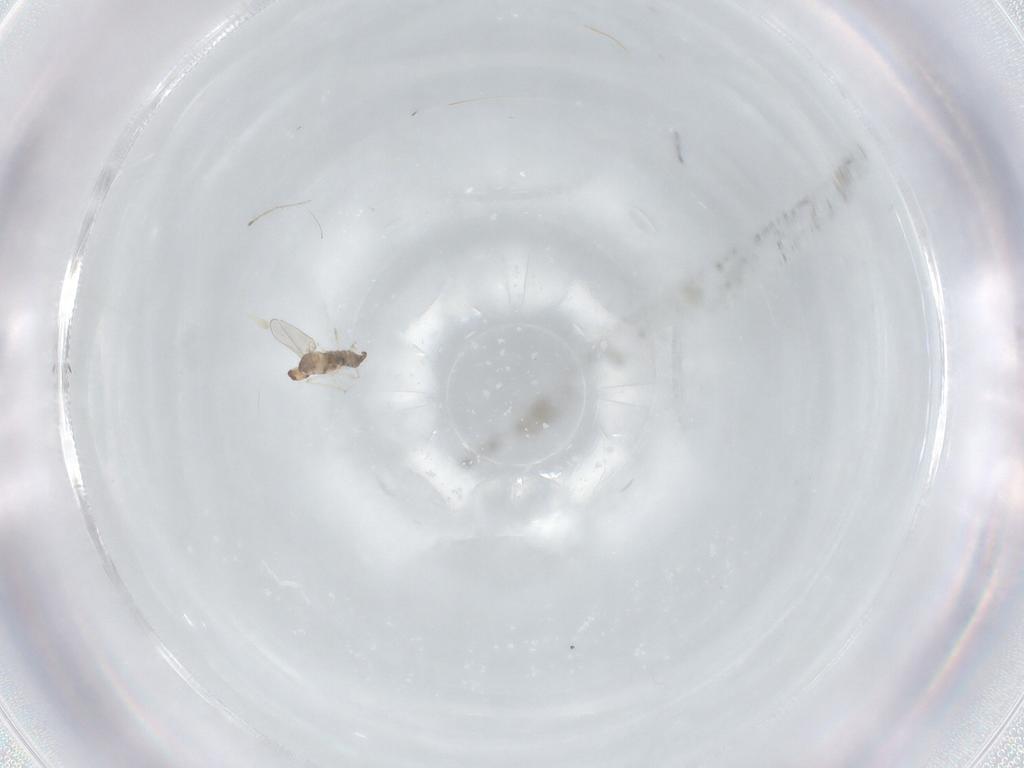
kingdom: Animalia
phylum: Arthropoda
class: Insecta
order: Diptera
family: Cecidomyiidae
